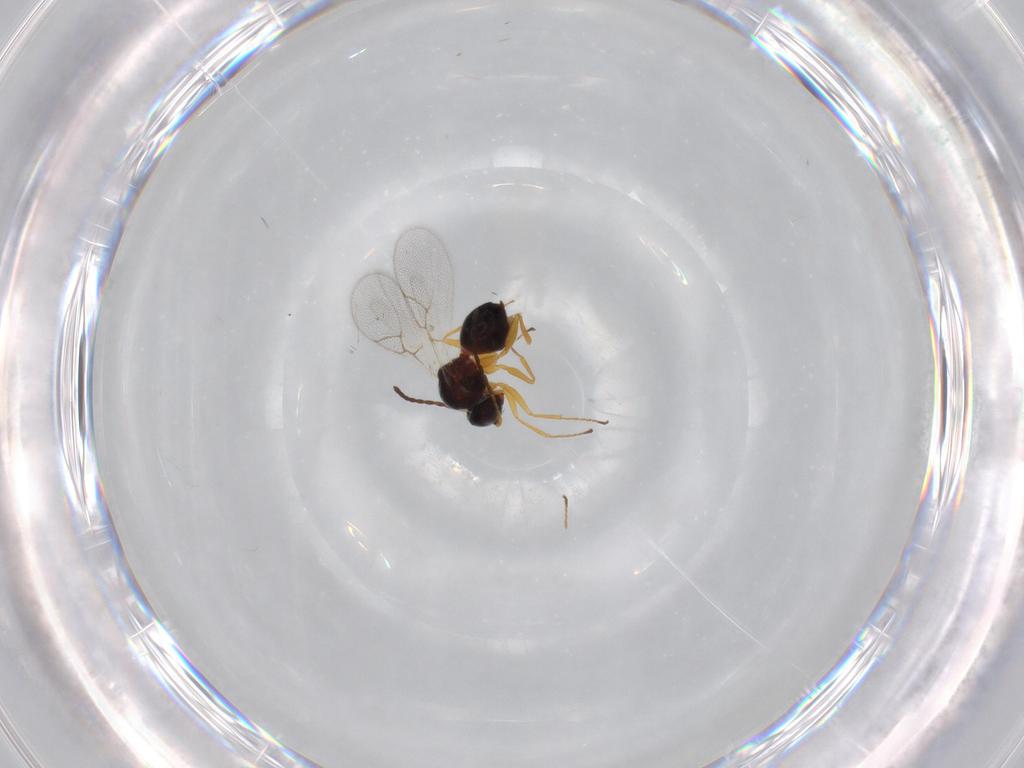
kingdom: Animalia
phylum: Arthropoda
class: Insecta
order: Hymenoptera
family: Figitidae
